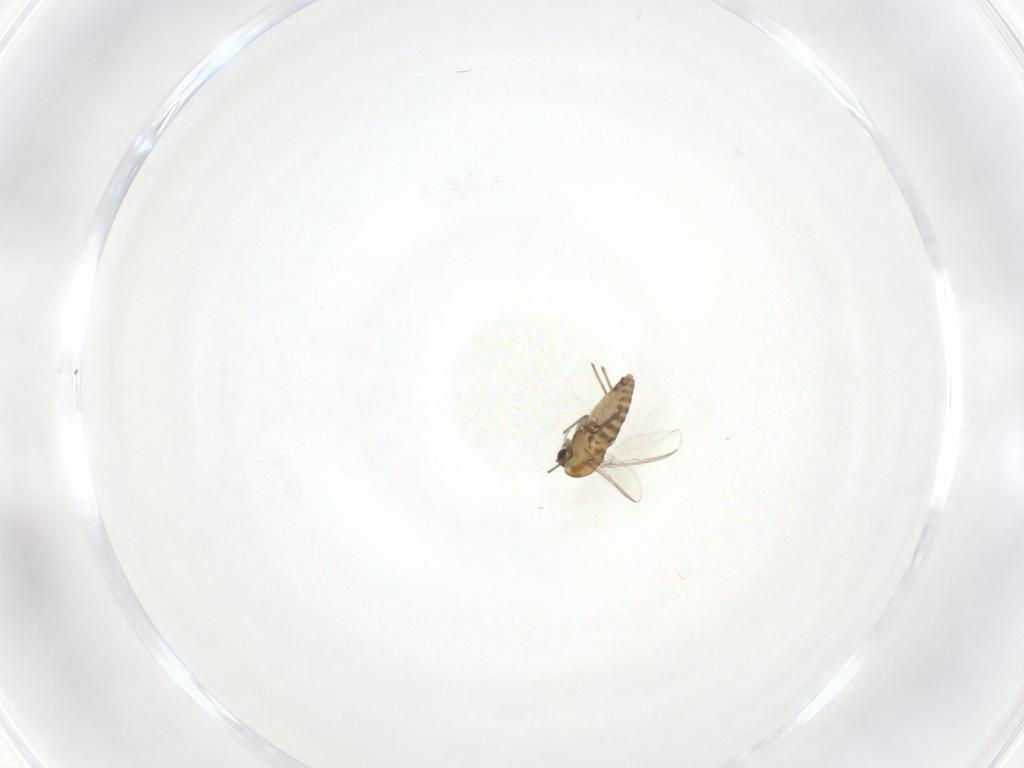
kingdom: Animalia
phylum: Arthropoda
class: Insecta
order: Diptera
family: Chironomidae
